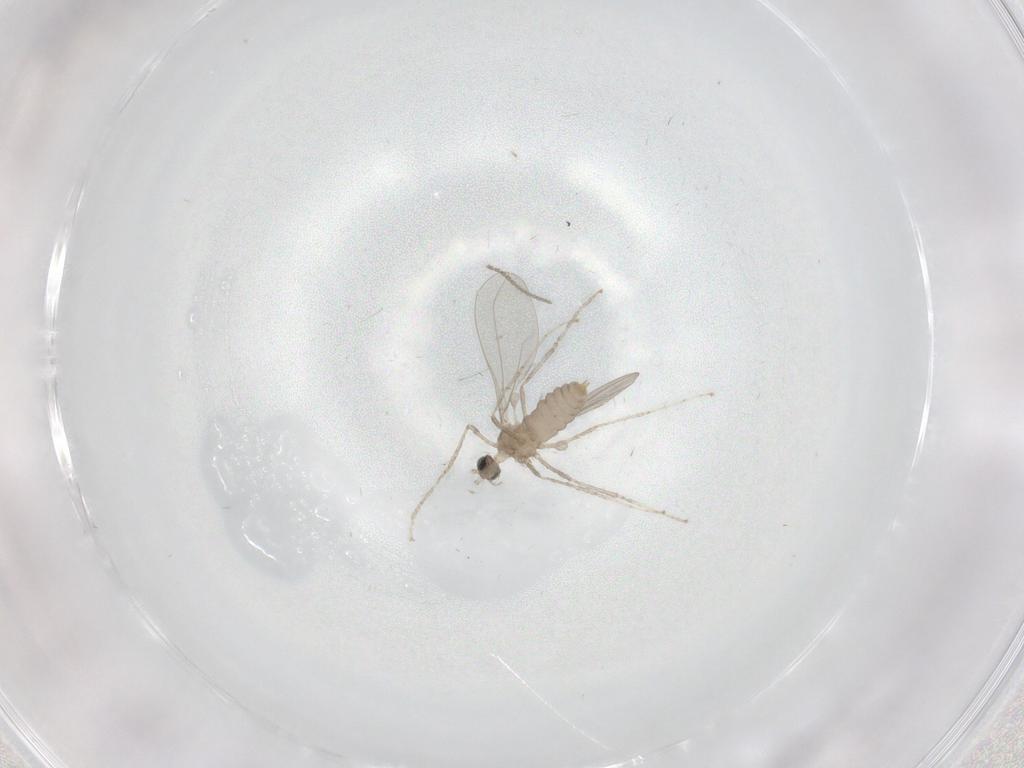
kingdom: Animalia
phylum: Arthropoda
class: Insecta
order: Diptera
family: Cecidomyiidae
